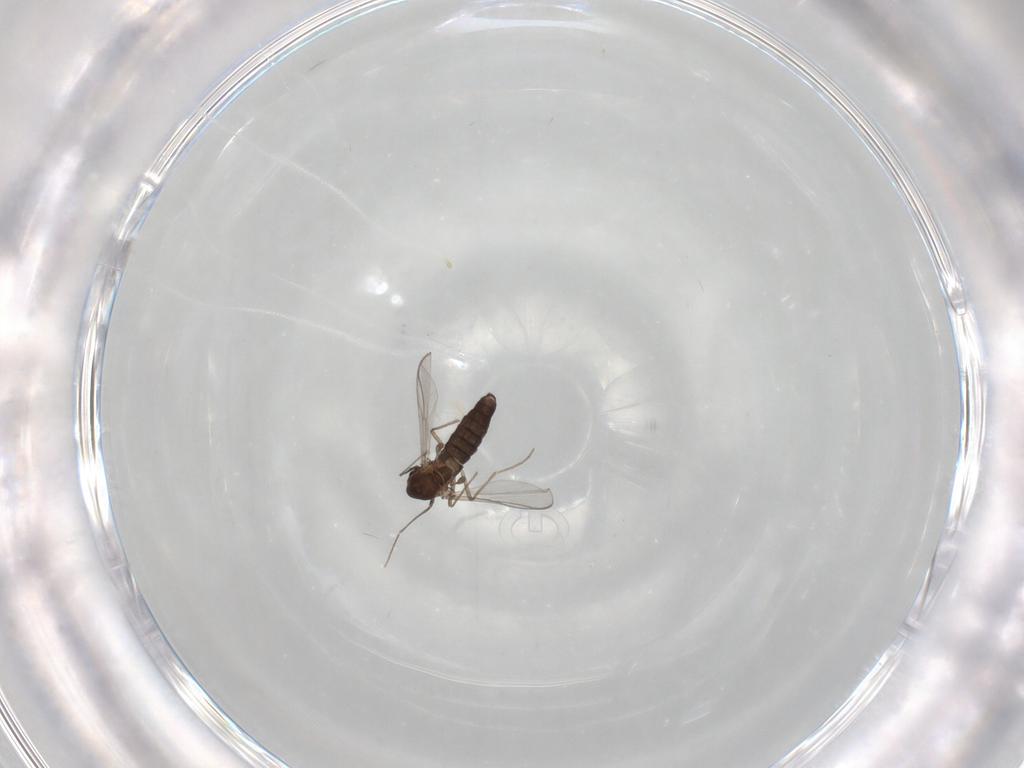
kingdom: Animalia
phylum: Arthropoda
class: Insecta
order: Diptera
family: Chironomidae
